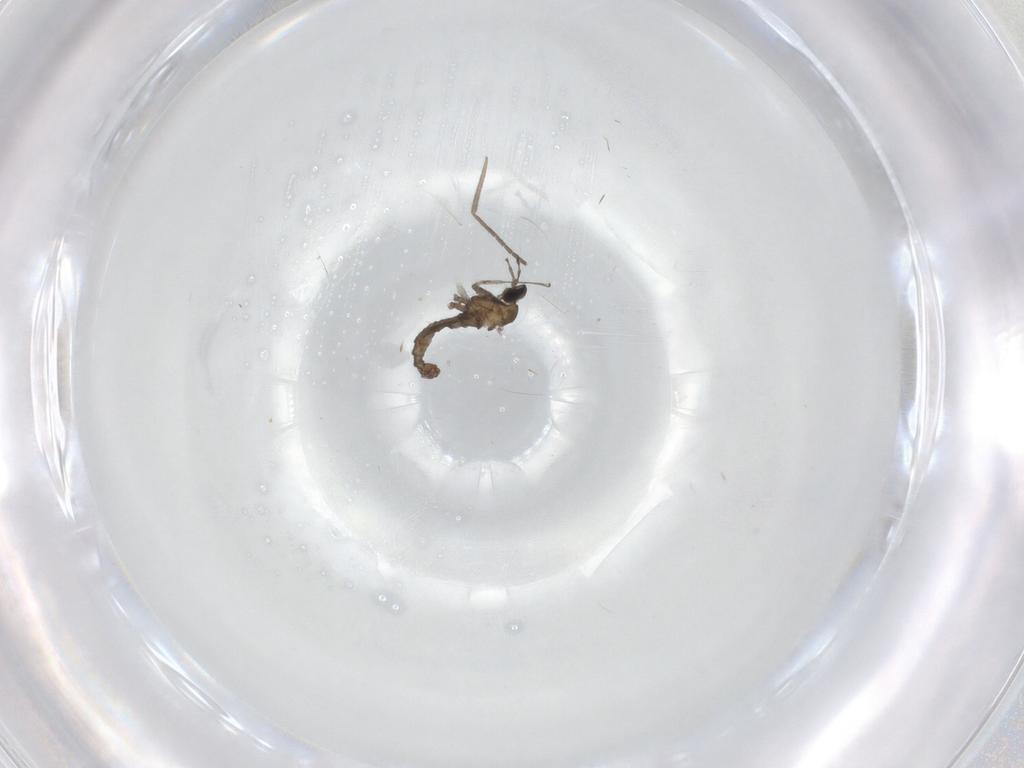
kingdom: Animalia
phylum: Arthropoda
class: Insecta
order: Diptera
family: Cecidomyiidae
